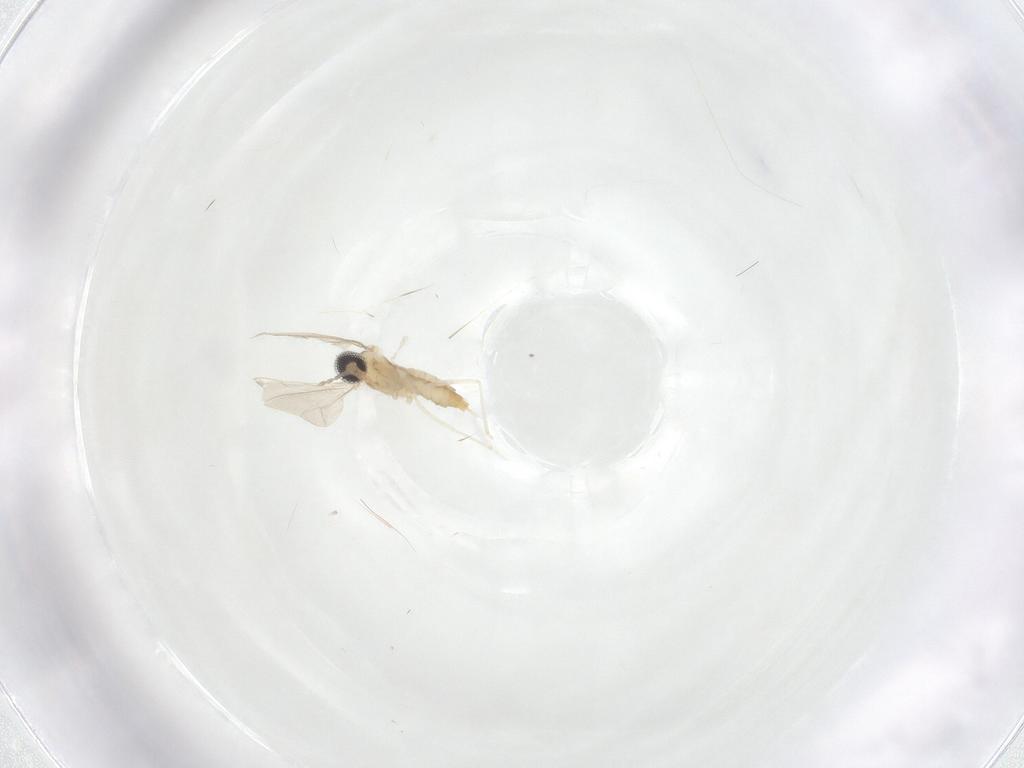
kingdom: Animalia
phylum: Arthropoda
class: Insecta
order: Diptera
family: Cecidomyiidae
